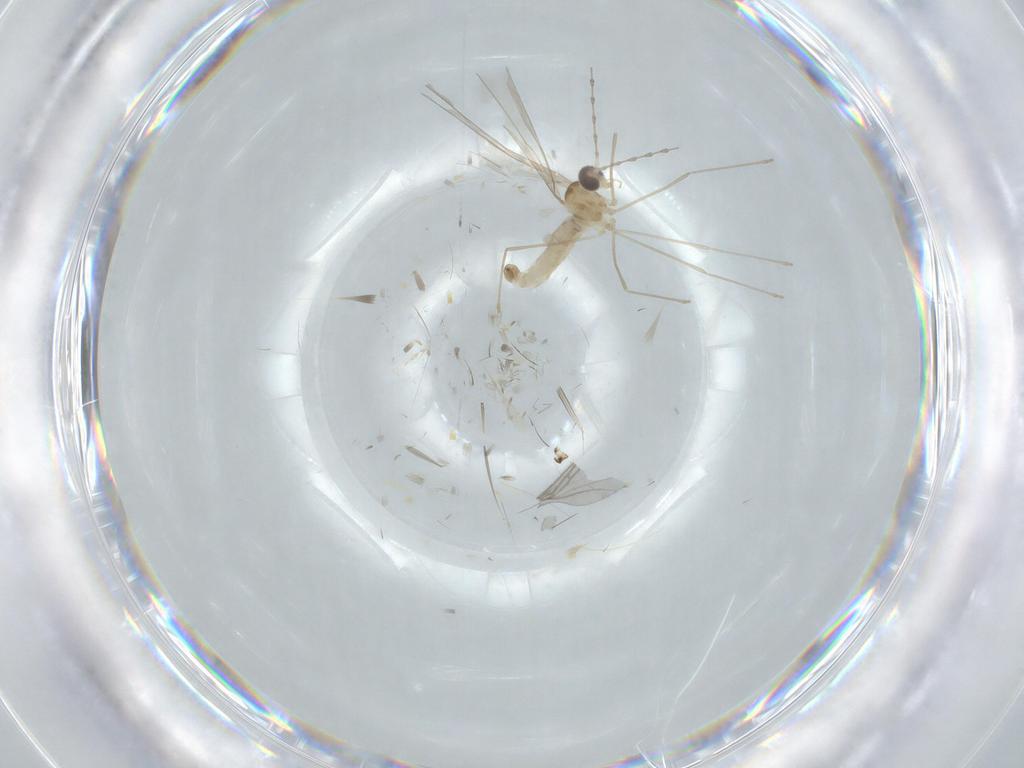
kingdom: Animalia
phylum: Arthropoda
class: Insecta
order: Diptera
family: Cecidomyiidae
